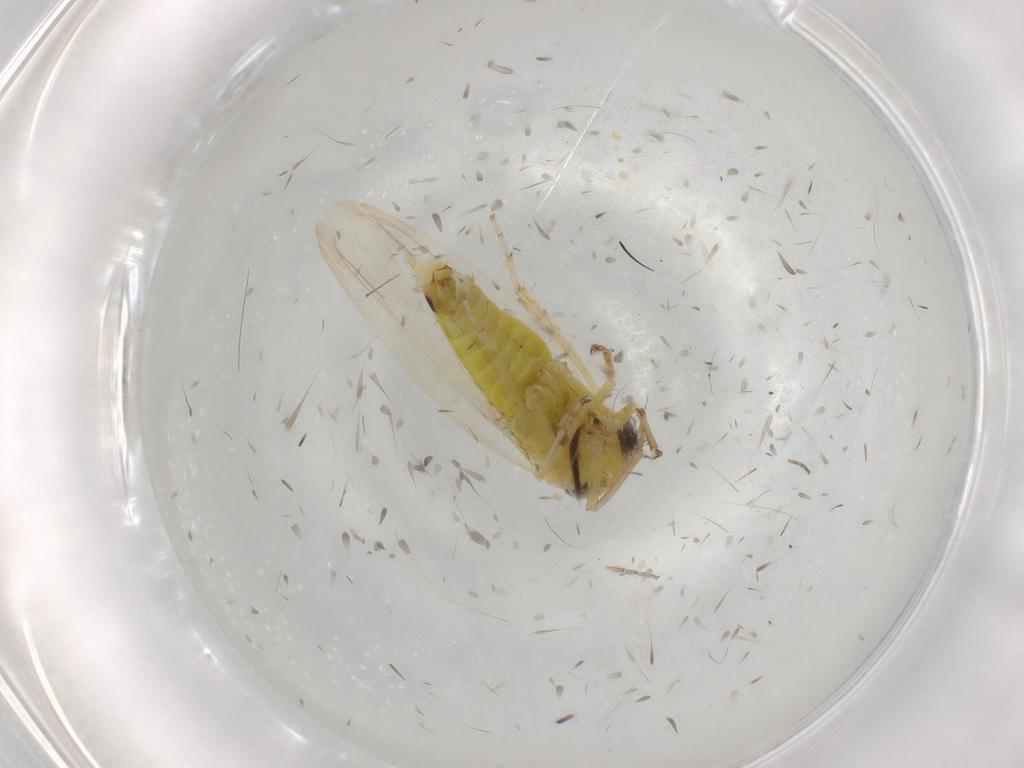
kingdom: Animalia
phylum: Arthropoda
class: Insecta
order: Hemiptera
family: Cicadellidae
